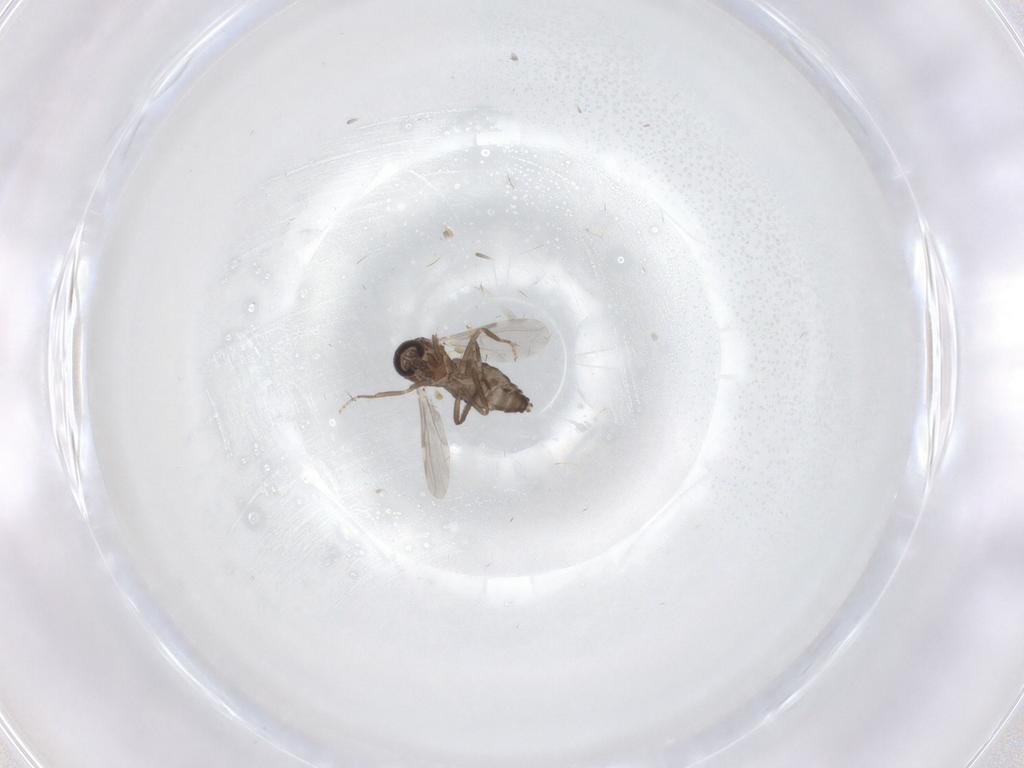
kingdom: Animalia
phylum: Arthropoda
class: Insecta
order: Diptera
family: Ceratopogonidae
